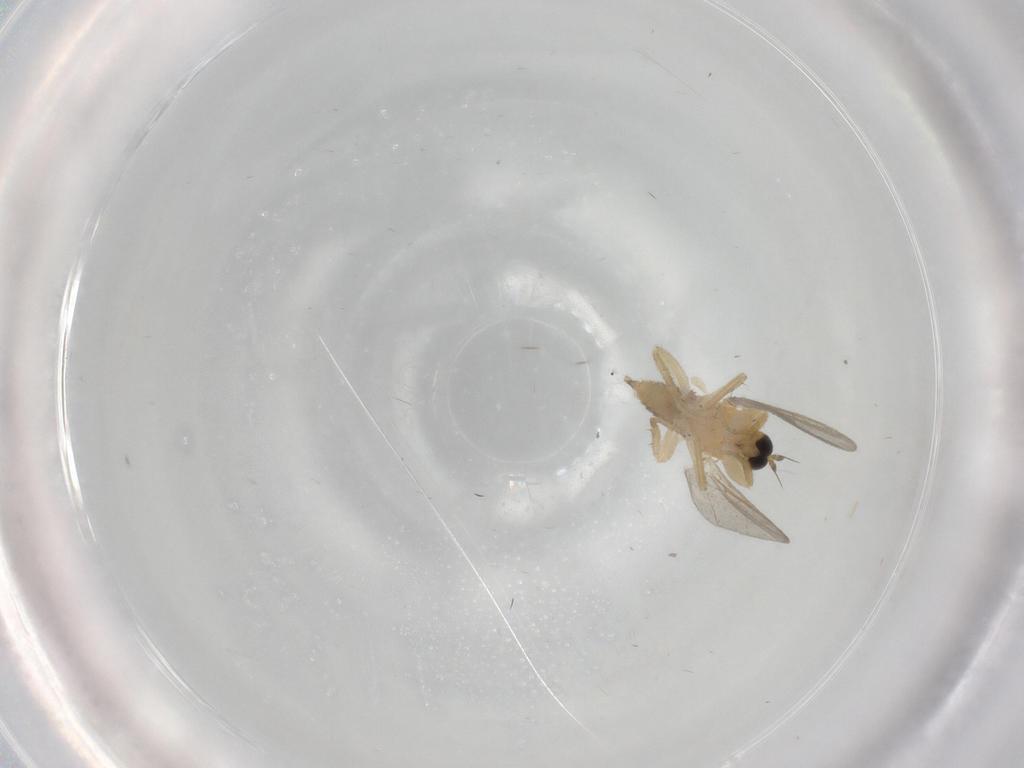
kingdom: Animalia
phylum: Arthropoda
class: Insecta
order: Diptera
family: Hybotidae
